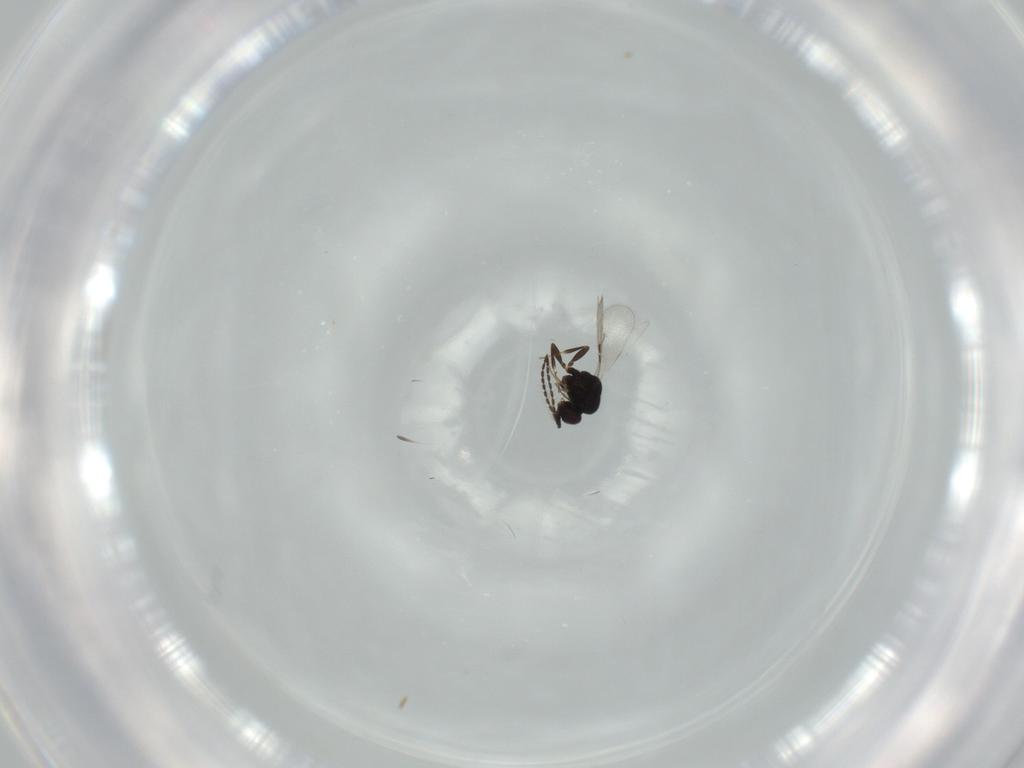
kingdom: Animalia
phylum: Arthropoda
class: Insecta
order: Hymenoptera
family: Ceraphronidae
